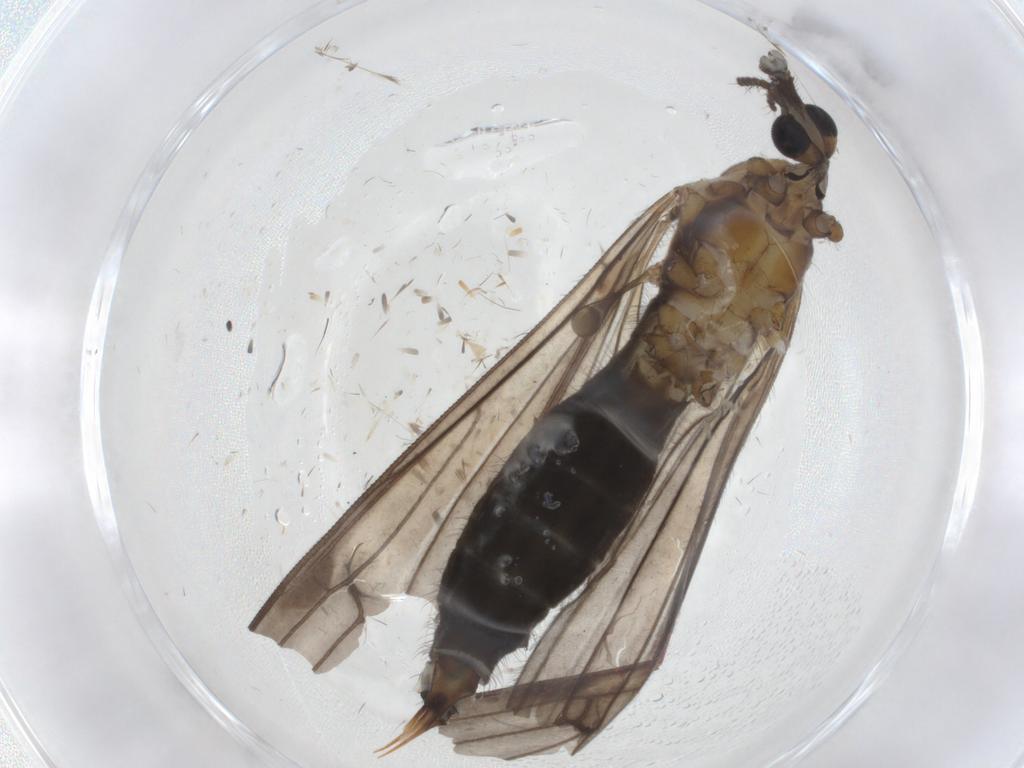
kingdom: Animalia
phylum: Arthropoda
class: Insecta
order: Diptera
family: Limoniidae
